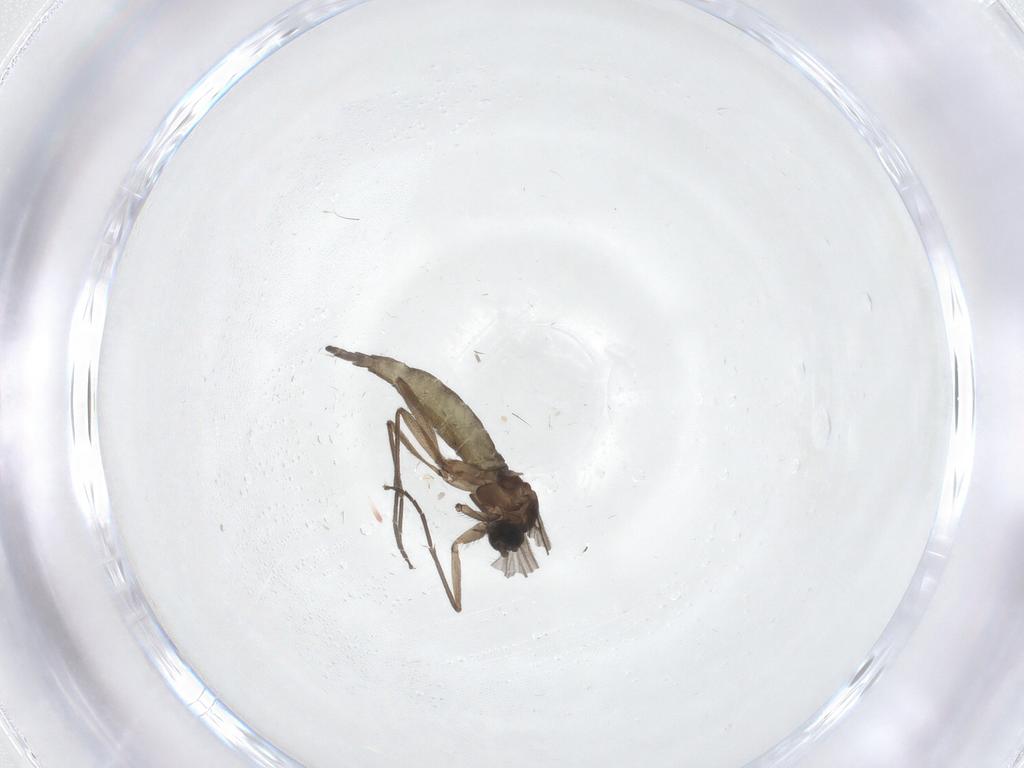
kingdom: Animalia
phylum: Arthropoda
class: Insecta
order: Diptera
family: Sciaridae
